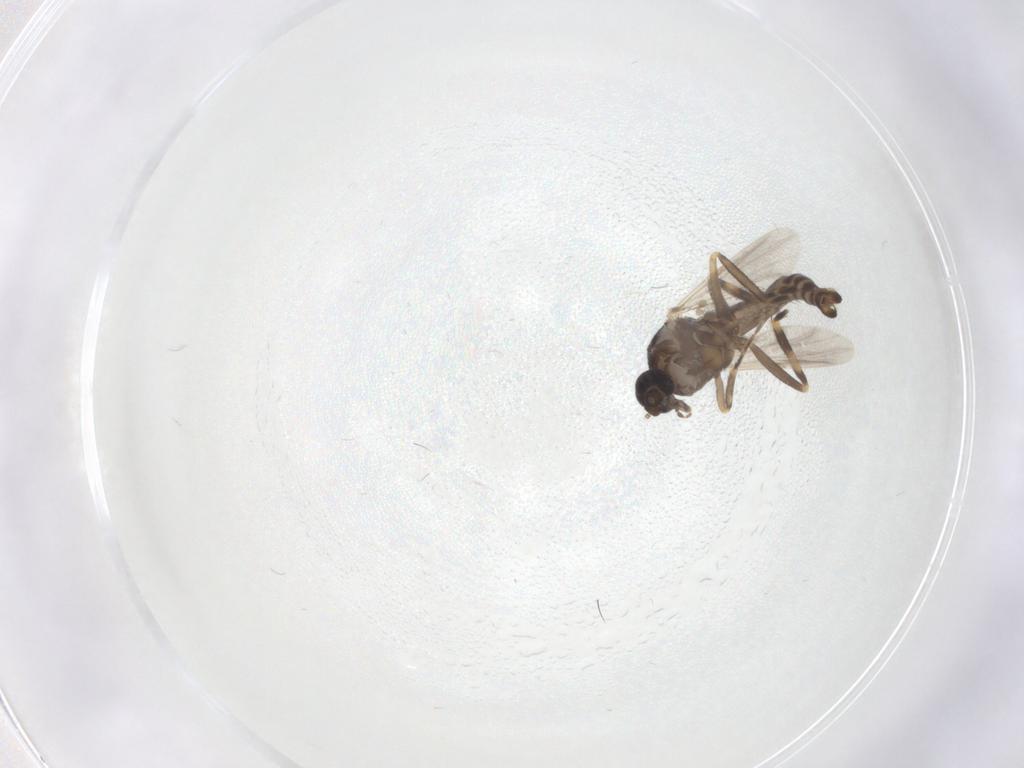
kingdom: Animalia
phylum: Arthropoda
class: Insecta
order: Diptera
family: Ceratopogonidae
